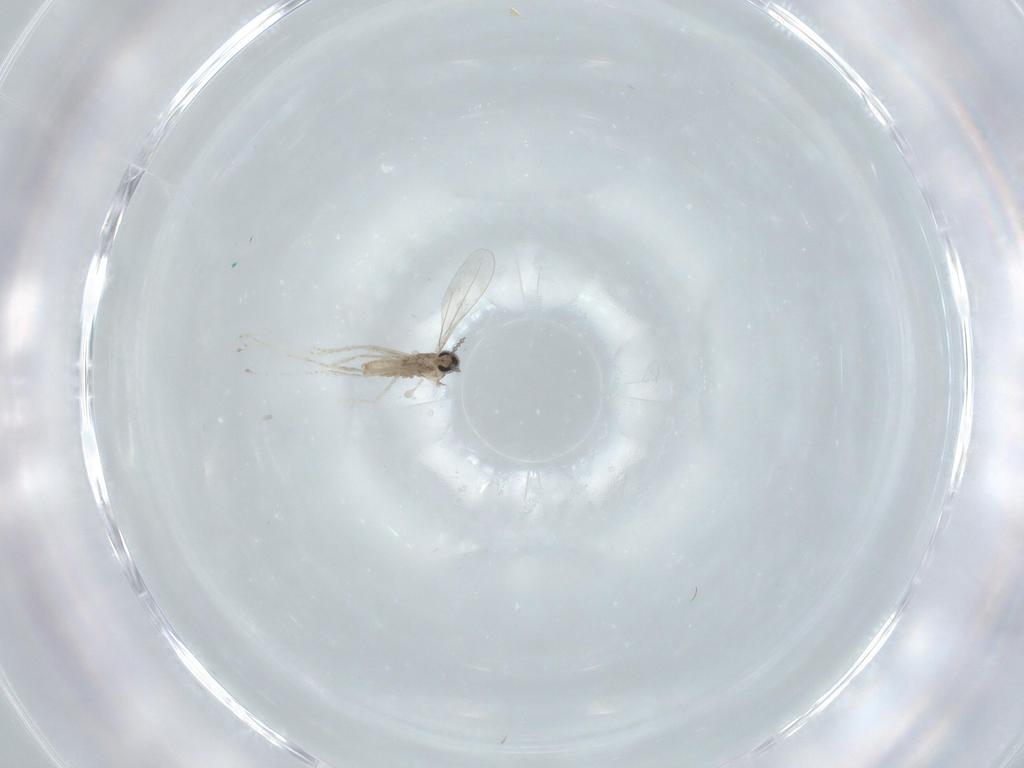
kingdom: Animalia
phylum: Arthropoda
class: Insecta
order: Diptera
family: Cecidomyiidae
